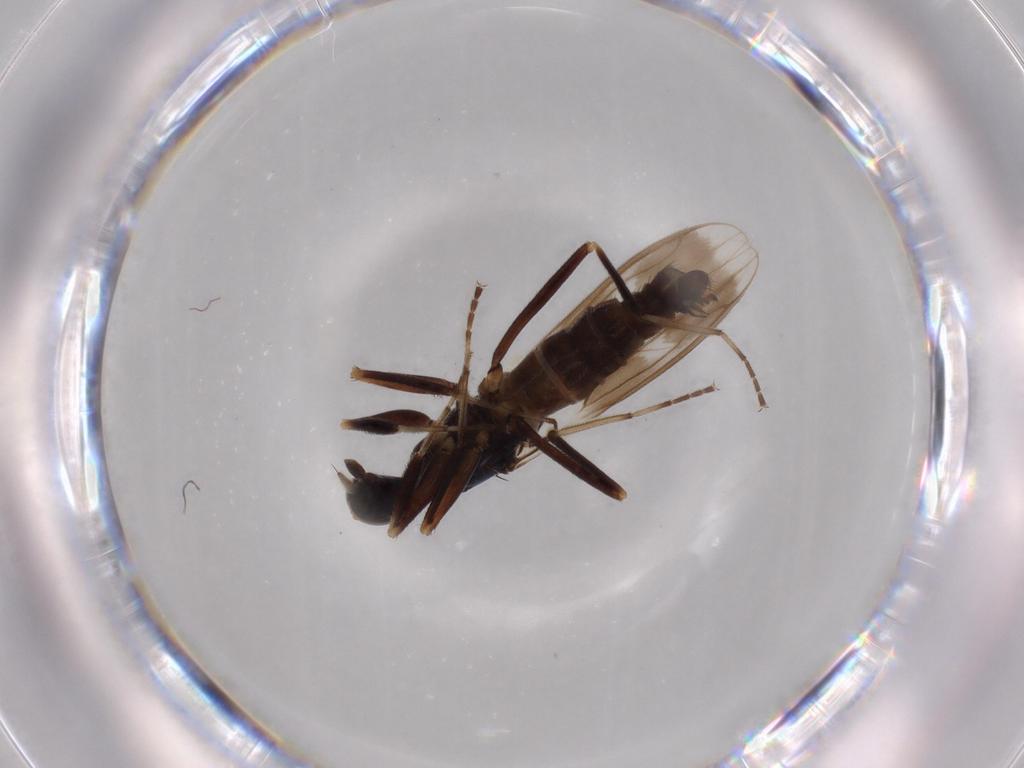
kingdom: Animalia
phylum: Arthropoda
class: Insecta
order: Diptera
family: Hybotidae
